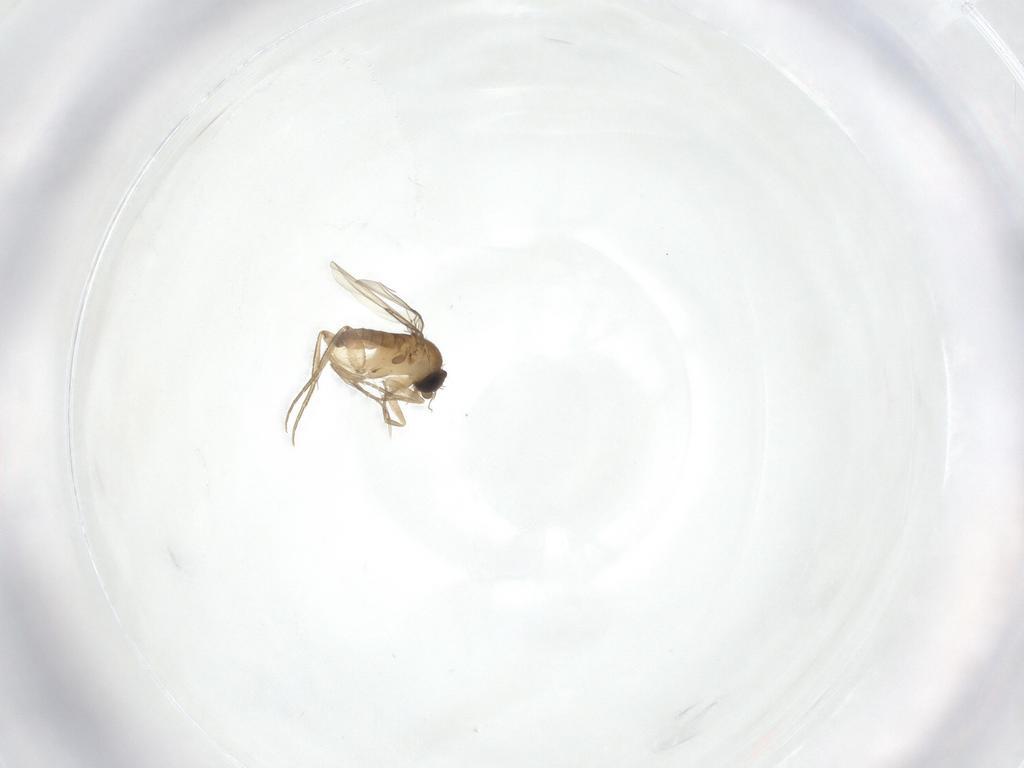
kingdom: Animalia
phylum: Arthropoda
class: Insecta
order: Diptera
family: Phoridae
